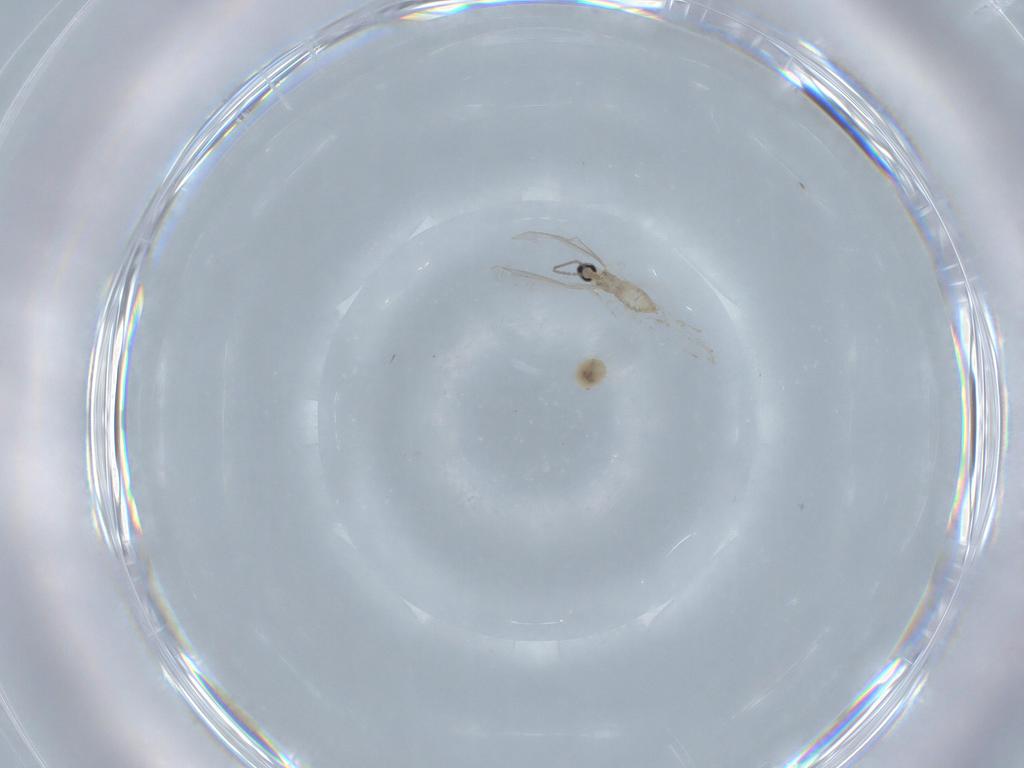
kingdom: Animalia
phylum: Arthropoda
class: Insecta
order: Diptera
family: Cecidomyiidae
